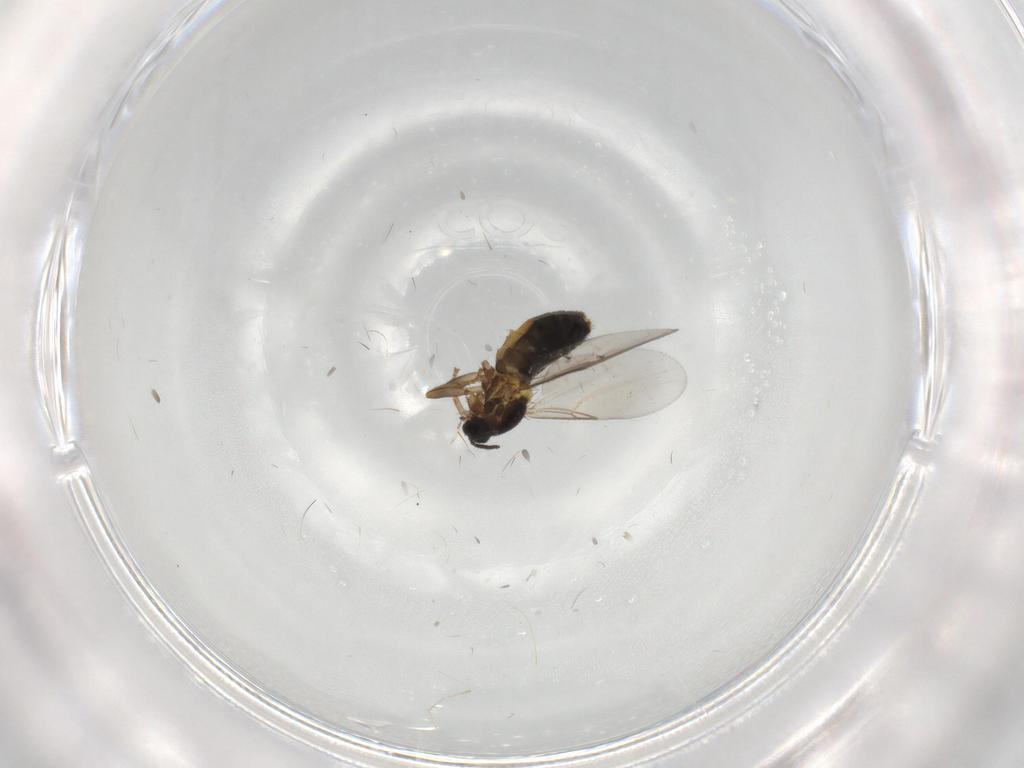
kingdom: Animalia
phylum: Arthropoda
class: Insecta
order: Diptera
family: Scatopsidae
